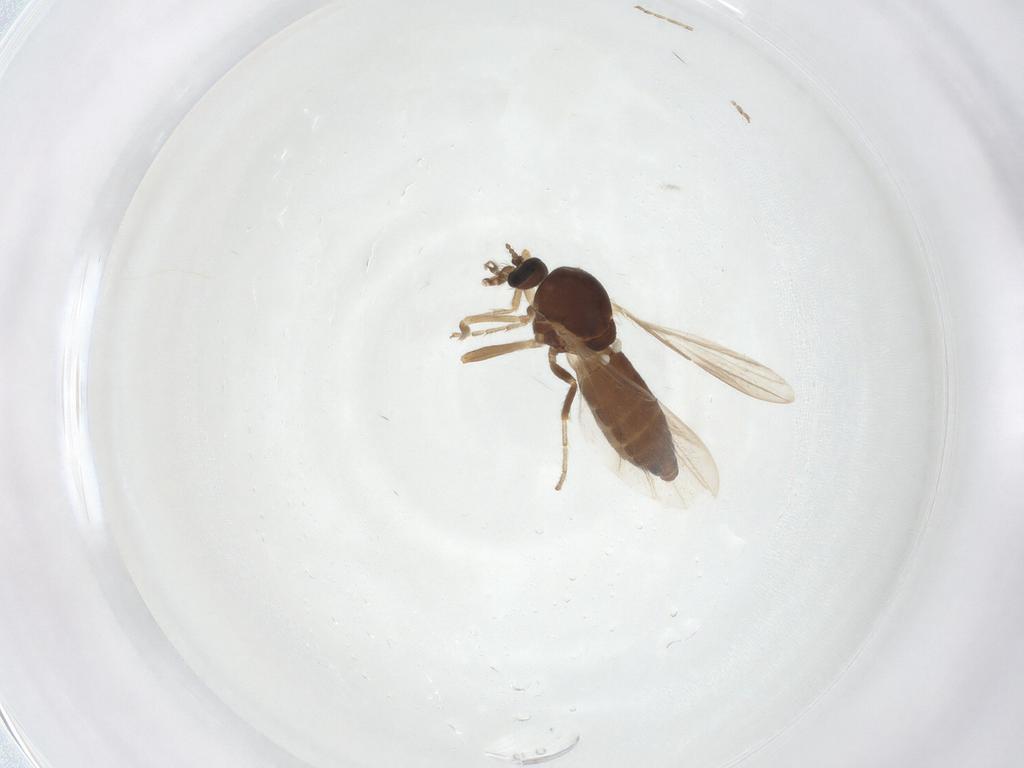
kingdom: Animalia
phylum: Arthropoda
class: Insecta
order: Diptera
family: Ceratopogonidae
